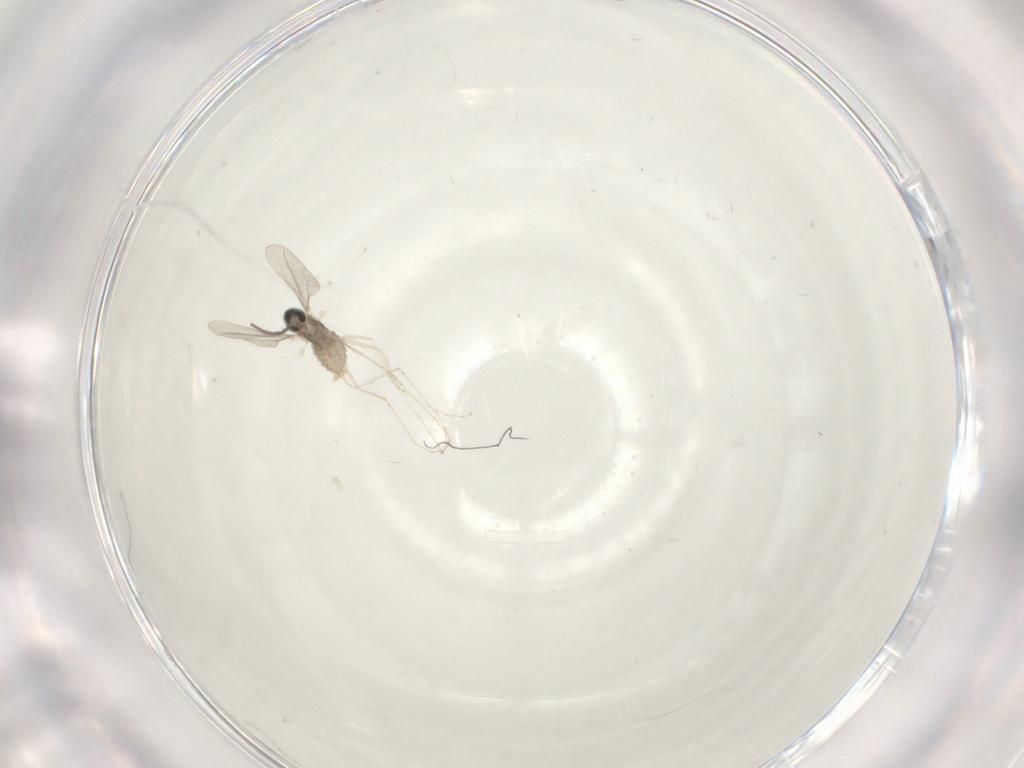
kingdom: Animalia
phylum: Arthropoda
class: Insecta
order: Diptera
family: Cecidomyiidae
